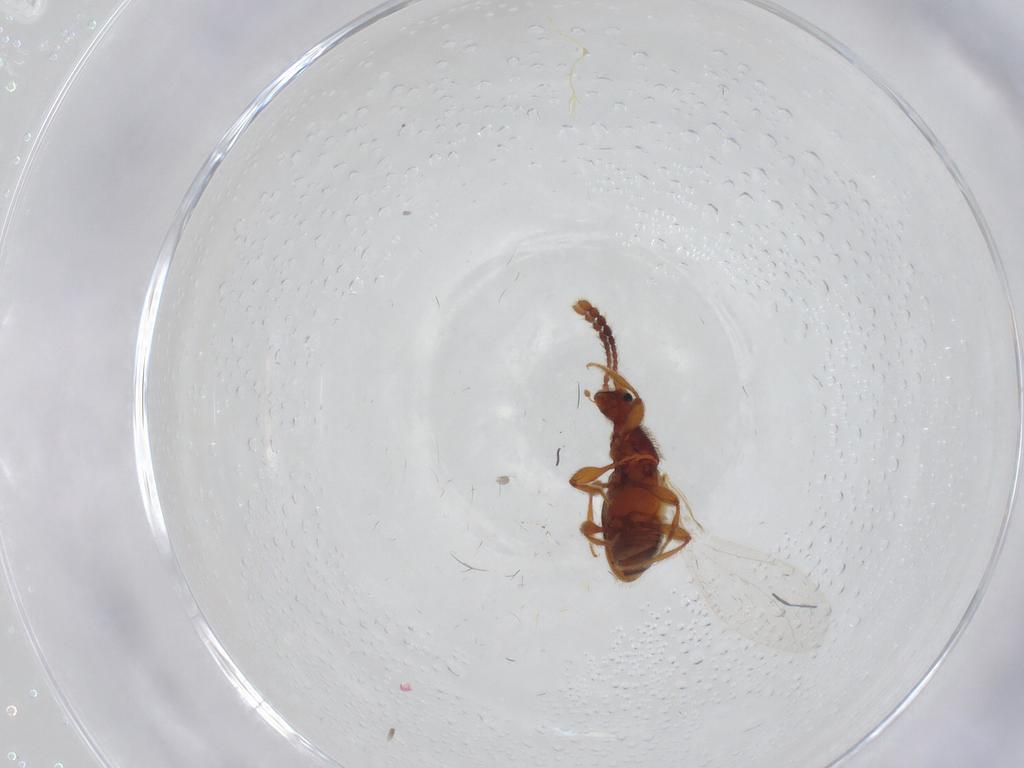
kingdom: Animalia
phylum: Arthropoda
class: Insecta
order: Coleoptera
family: Staphylinidae
